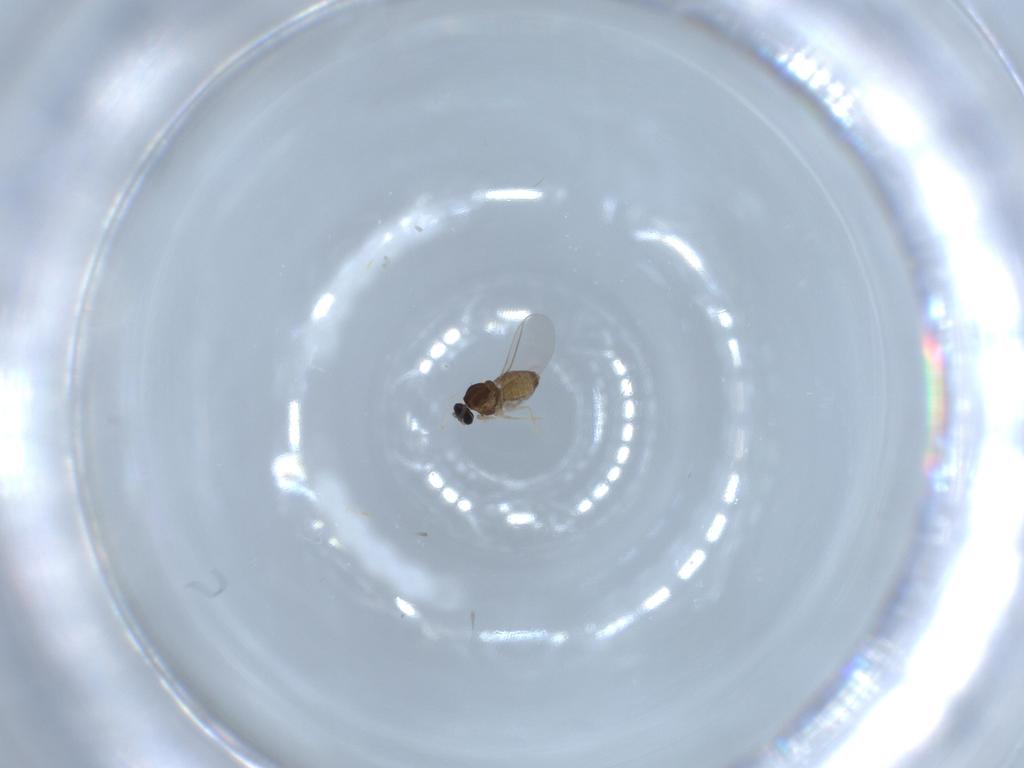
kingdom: Animalia
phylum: Arthropoda
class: Insecta
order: Diptera
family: Cecidomyiidae
